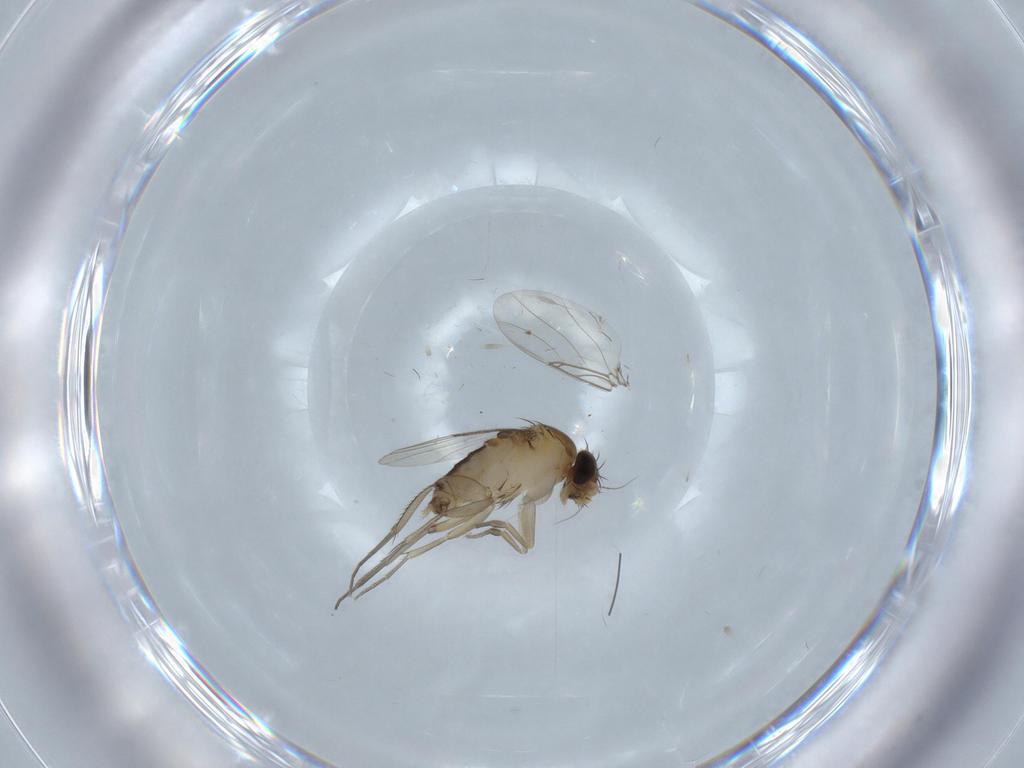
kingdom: Animalia
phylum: Arthropoda
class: Insecta
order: Diptera
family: Phoridae
